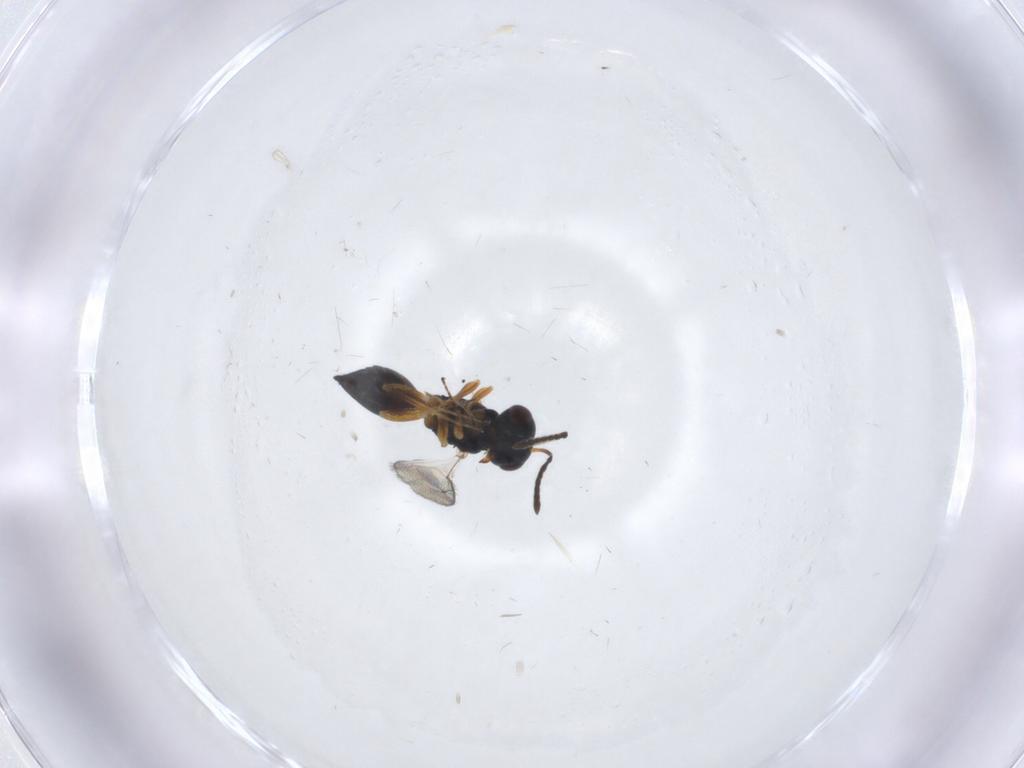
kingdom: Animalia
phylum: Arthropoda
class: Insecta
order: Hymenoptera
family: Pteromalidae
